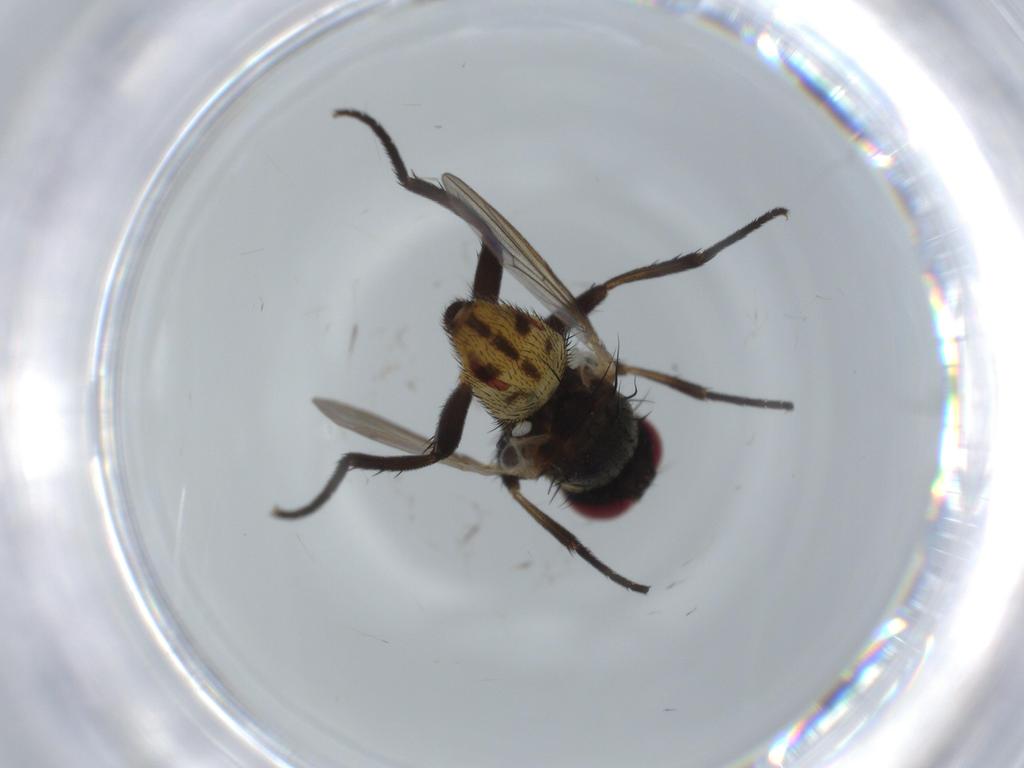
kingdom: Animalia
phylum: Arthropoda
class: Insecta
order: Diptera
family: Anthomyiidae
